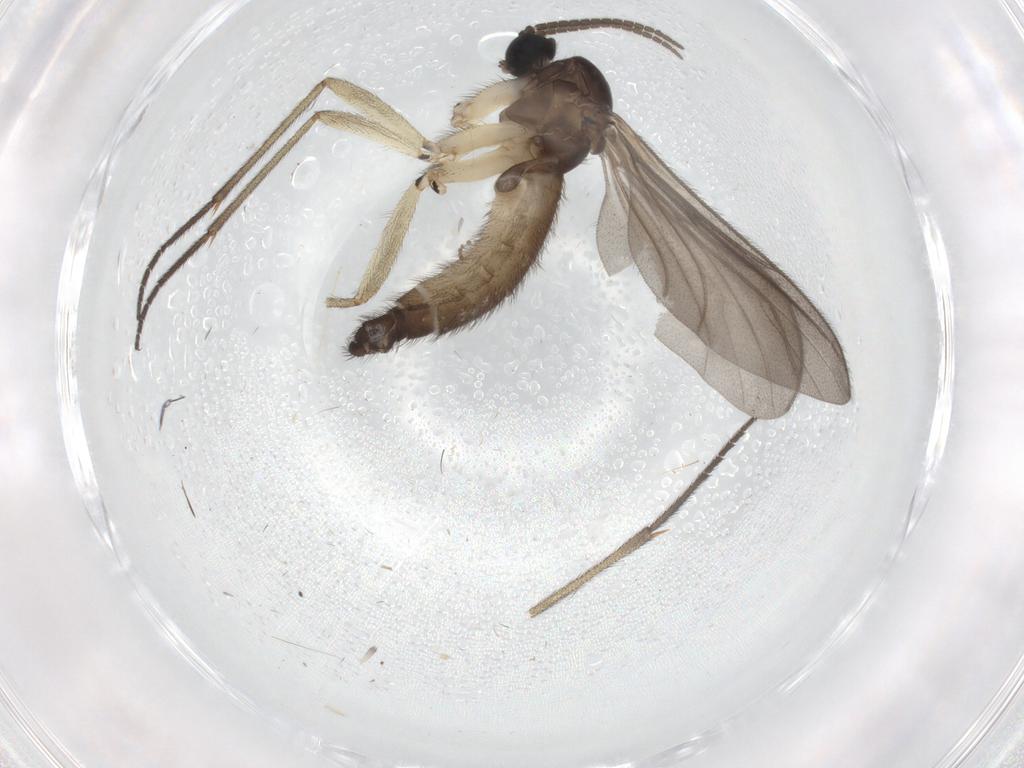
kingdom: Animalia
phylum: Arthropoda
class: Insecta
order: Diptera
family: Sciaridae
